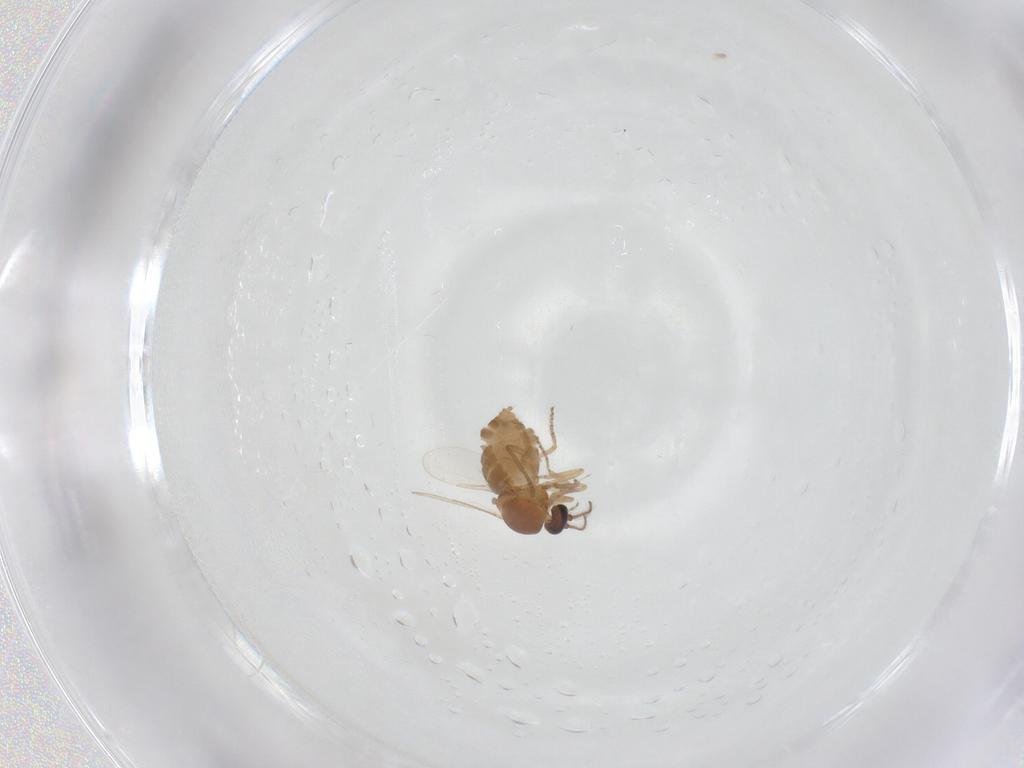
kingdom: Animalia
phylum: Arthropoda
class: Insecta
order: Diptera
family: Ceratopogonidae
